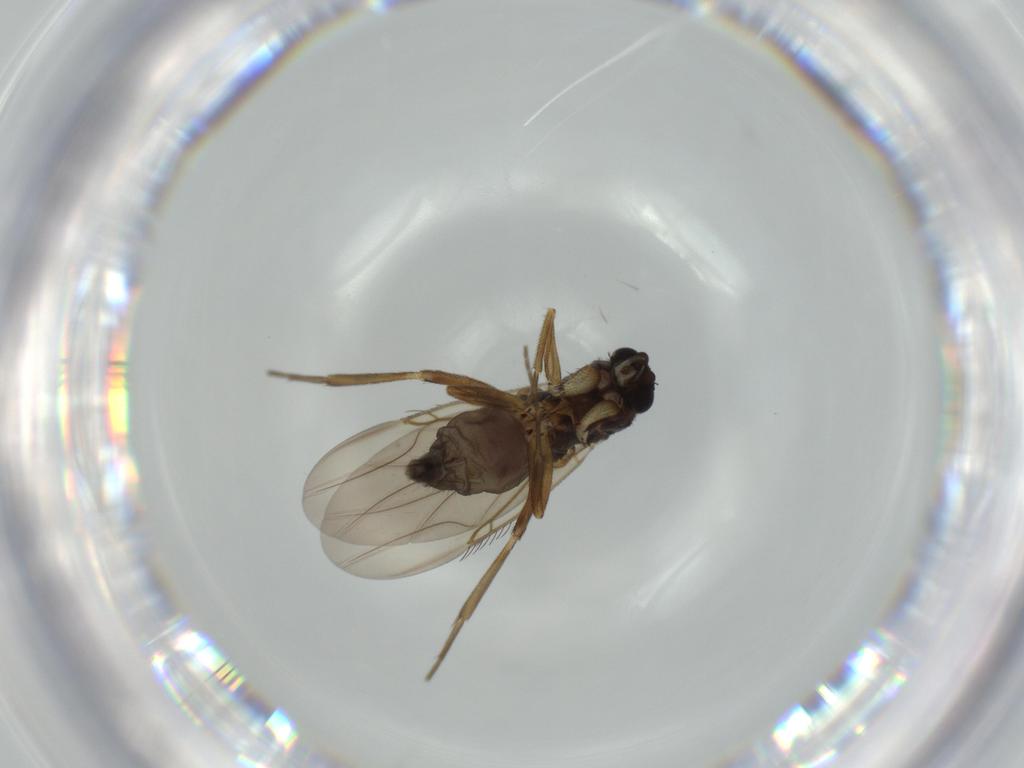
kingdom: Animalia
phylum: Arthropoda
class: Insecta
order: Diptera
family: Phoridae
